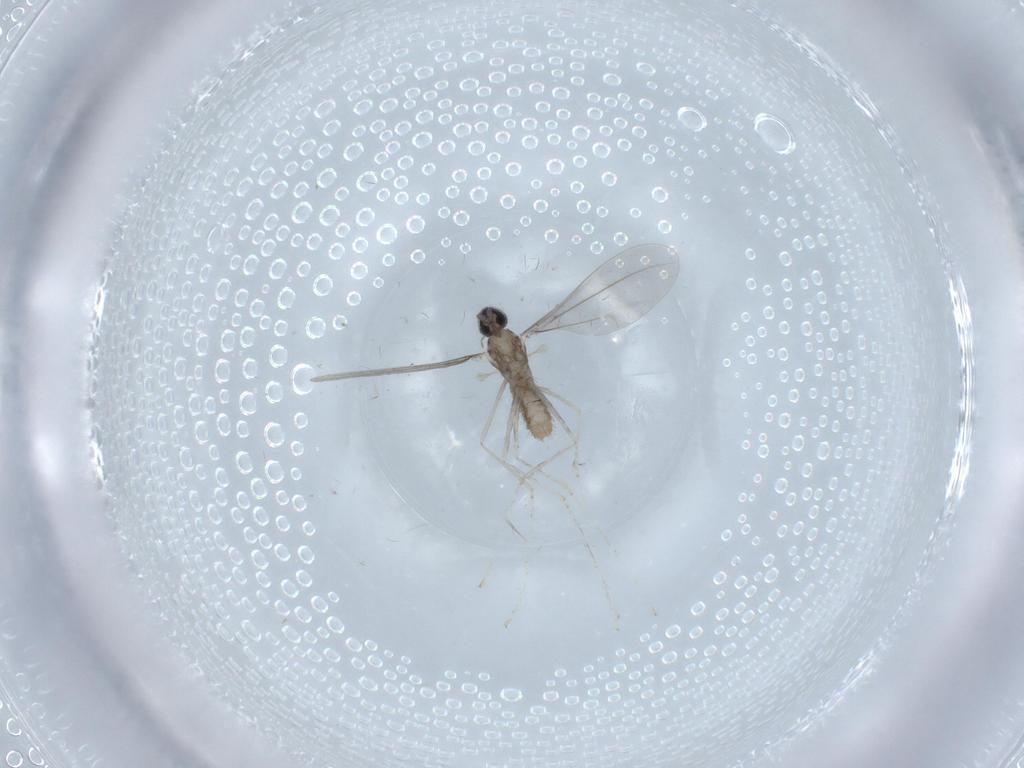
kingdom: Animalia
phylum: Arthropoda
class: Insecta
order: Diptera
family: Cecidomyiidae
